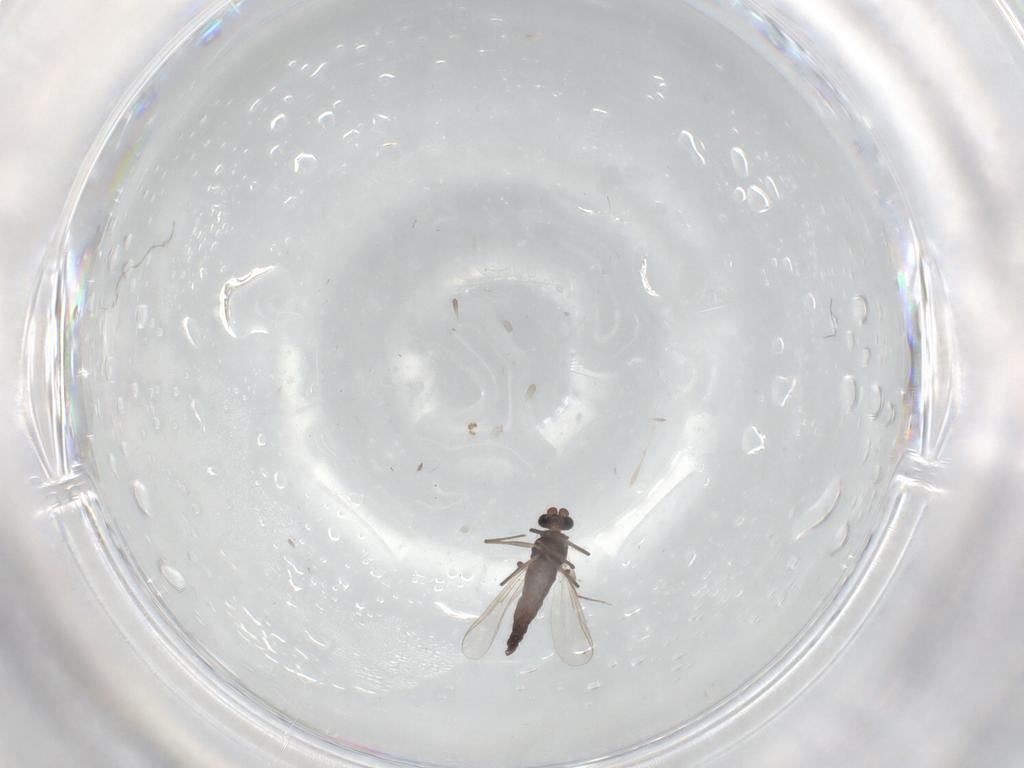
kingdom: Animalia
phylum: Arthropoda
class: Insecta
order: Diptera
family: Chironomidae
